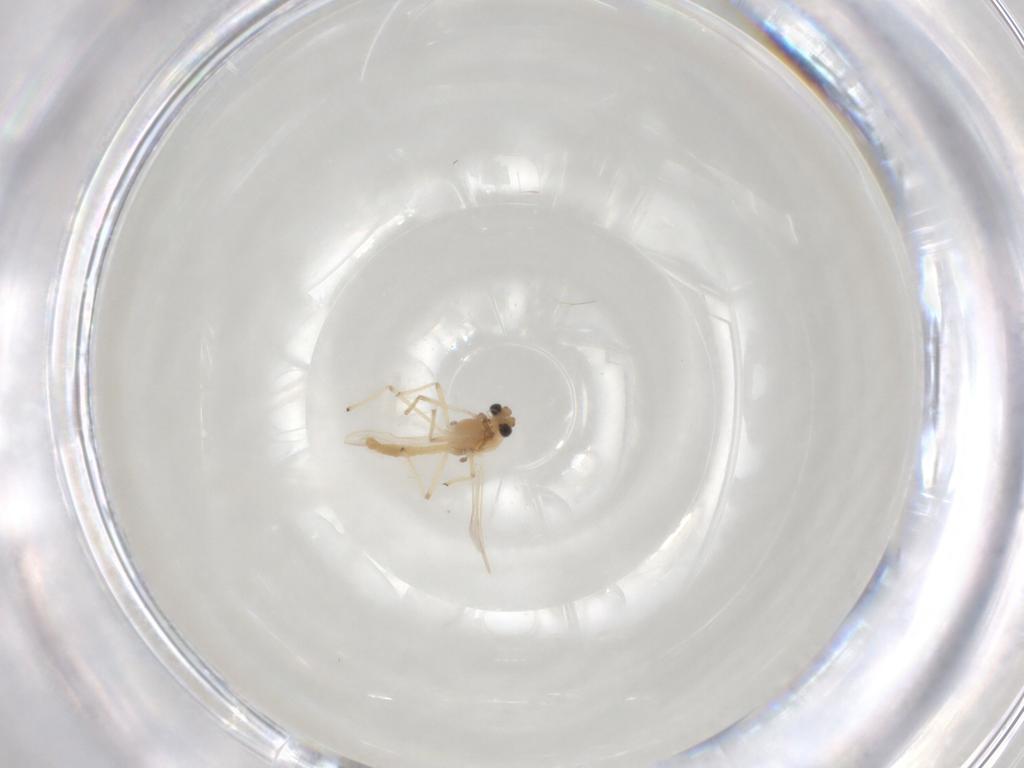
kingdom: Animalia
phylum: Arthropoda
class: Insecta
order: Diptera
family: Chironomidae
